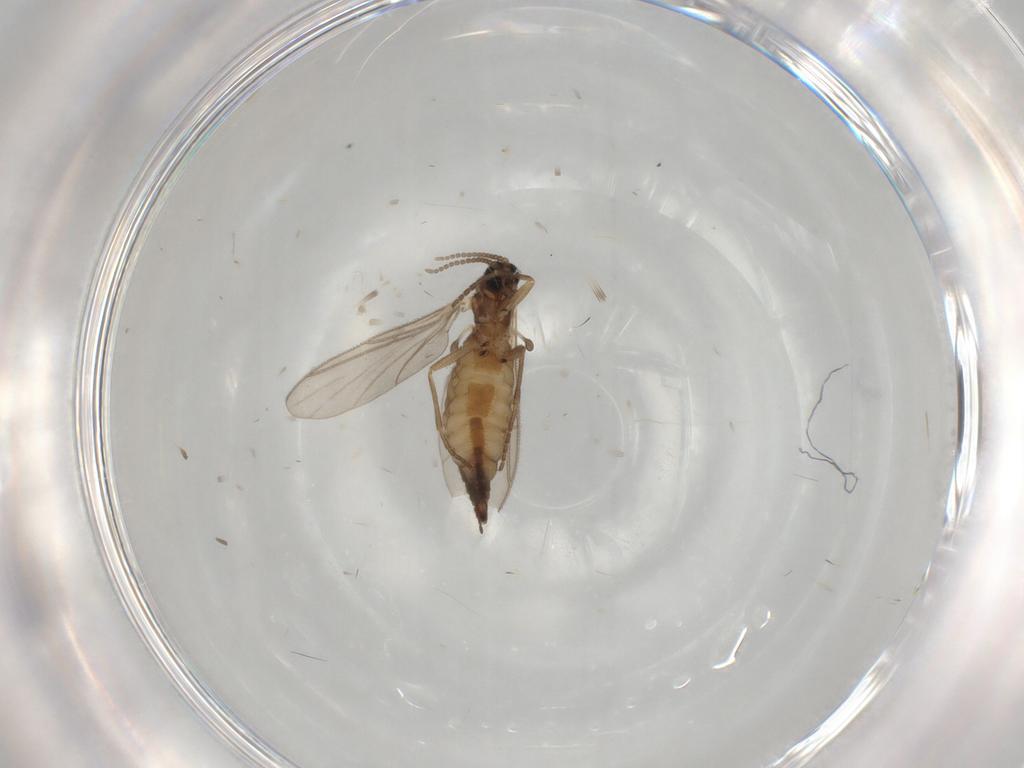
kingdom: Animalia
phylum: Arthropoda
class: Insecta
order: Diptera
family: Sciaridae
